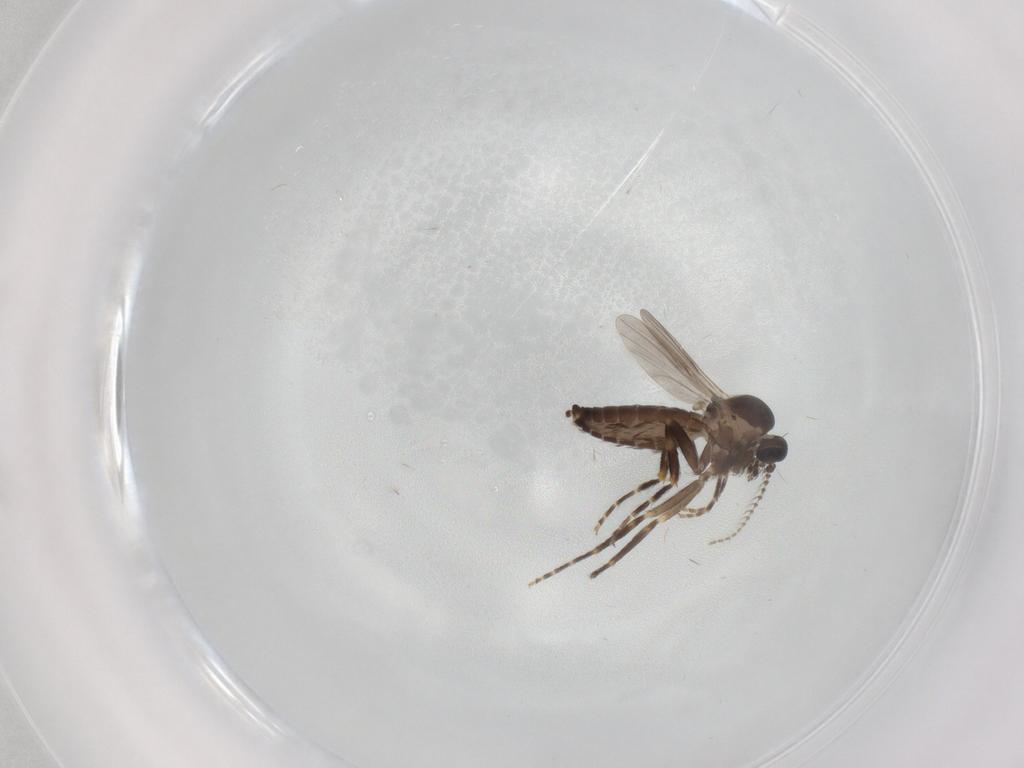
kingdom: Animalia
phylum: Arthropoda
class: Insecta
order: Diptera
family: Ceratopogonidae
